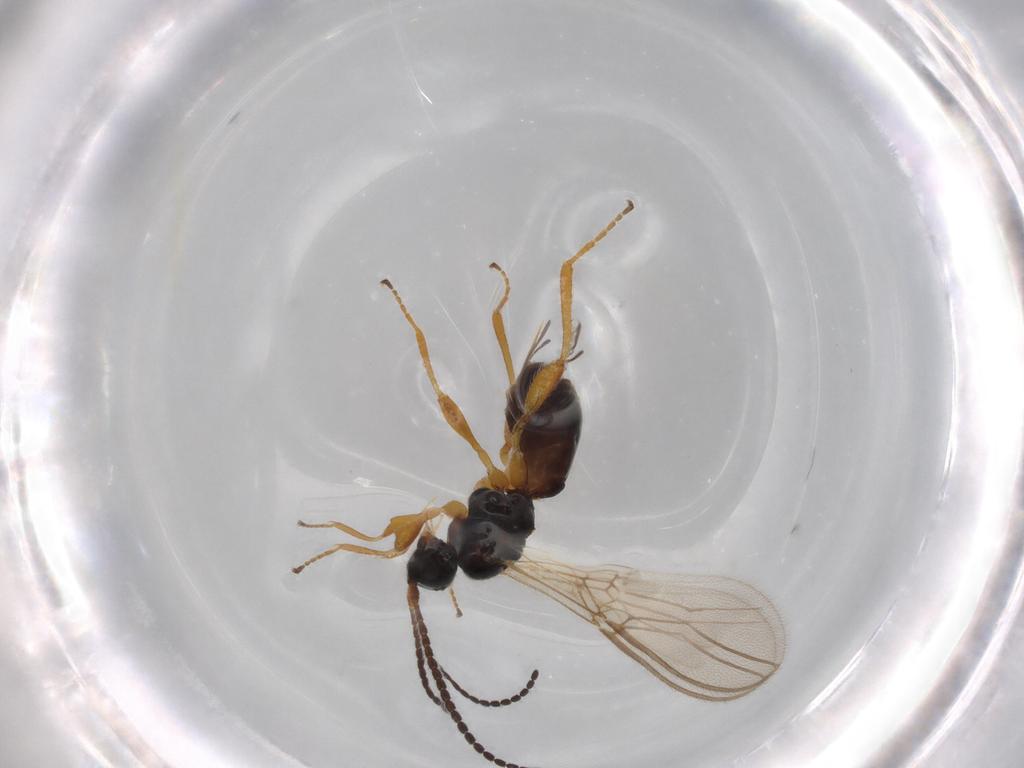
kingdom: Animalia
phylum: Arthropoda
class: Insecta
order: Hymenoptera
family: Braconidae
